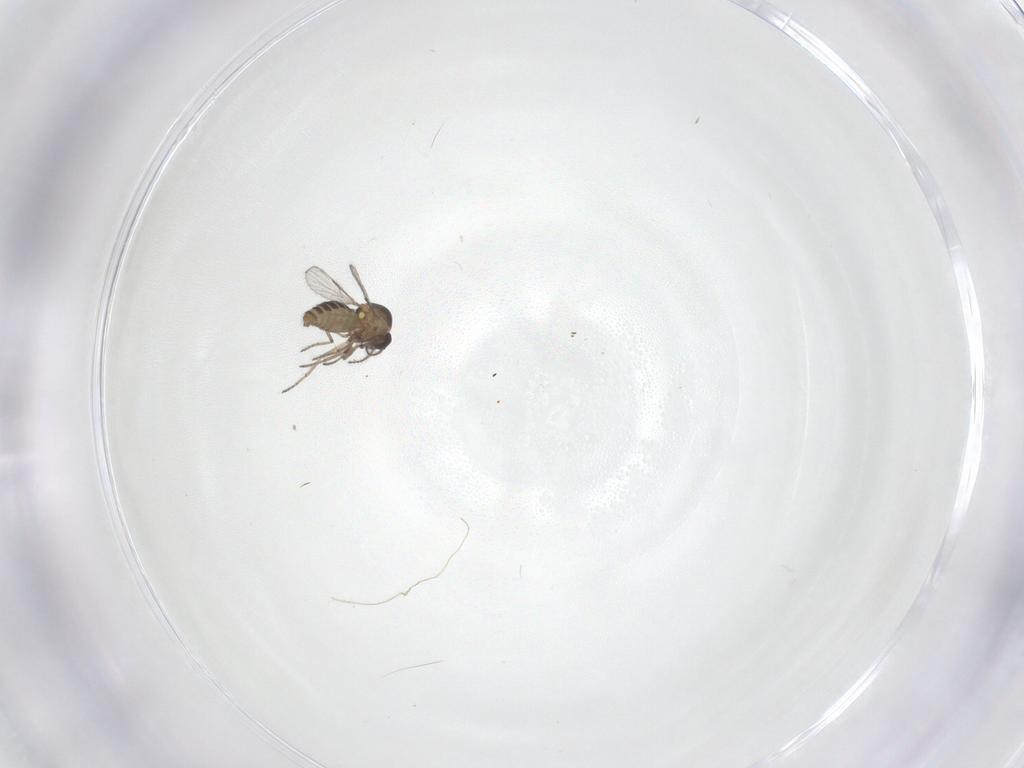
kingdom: Animalia
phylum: Arthropoda
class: Insecta
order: Diptera
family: Ceratopogonidae
